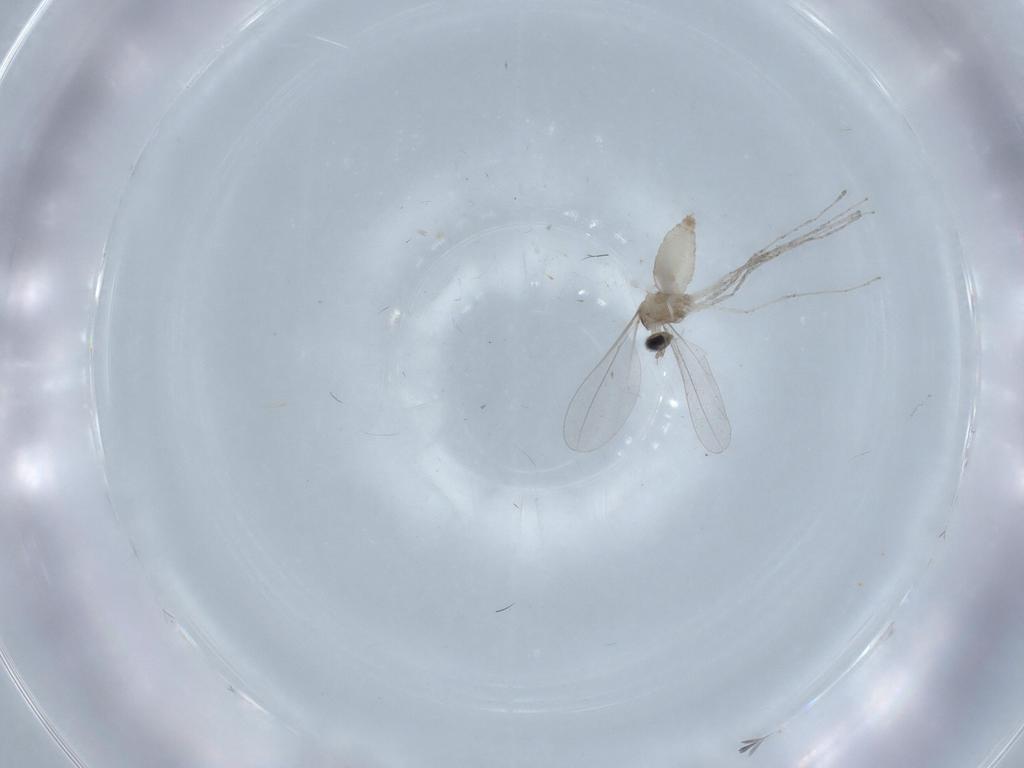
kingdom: Animalia
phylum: Arthropoda
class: Insecta
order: Diptera
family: Cecidomyiidae
